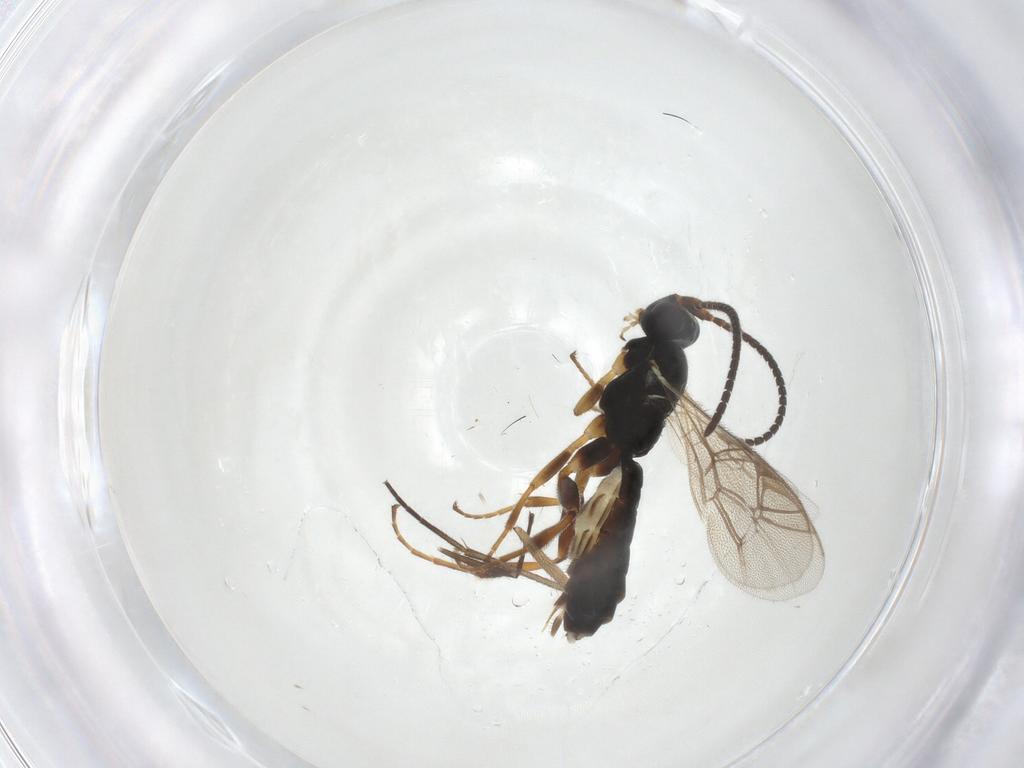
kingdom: Animalia
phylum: Arthropoda
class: Insecta
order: Hymenoptera
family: Ichneumonidae
